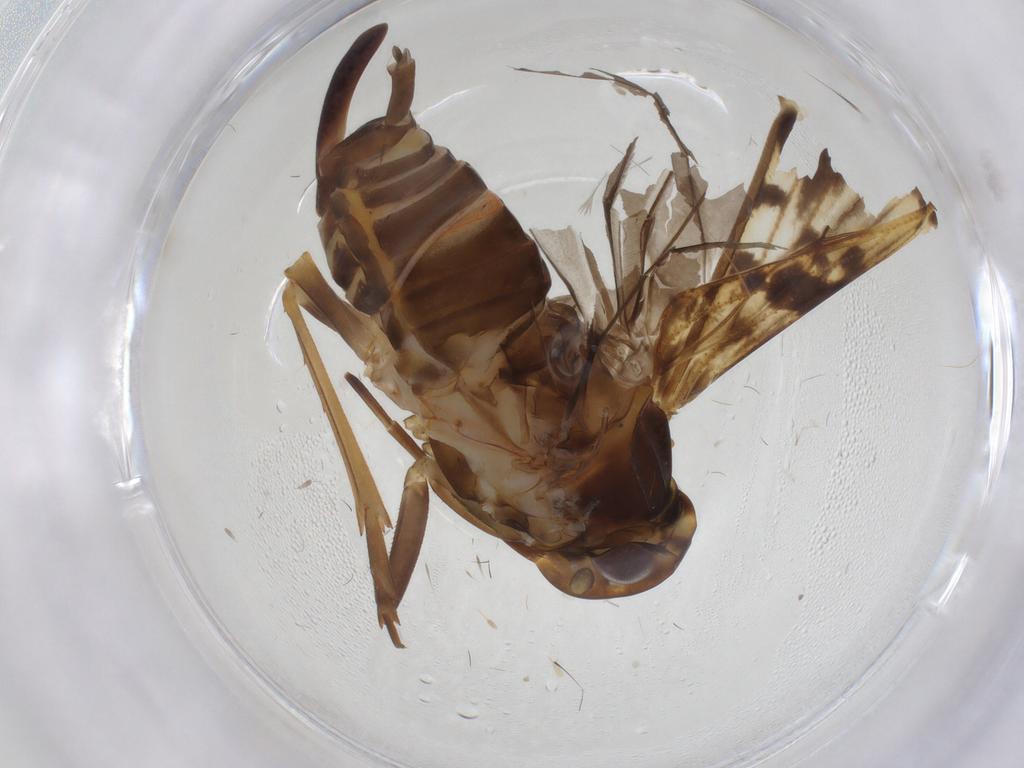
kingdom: Animalia
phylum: Arthropoda
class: Insecta
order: Hemiptera
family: Cixiidae
